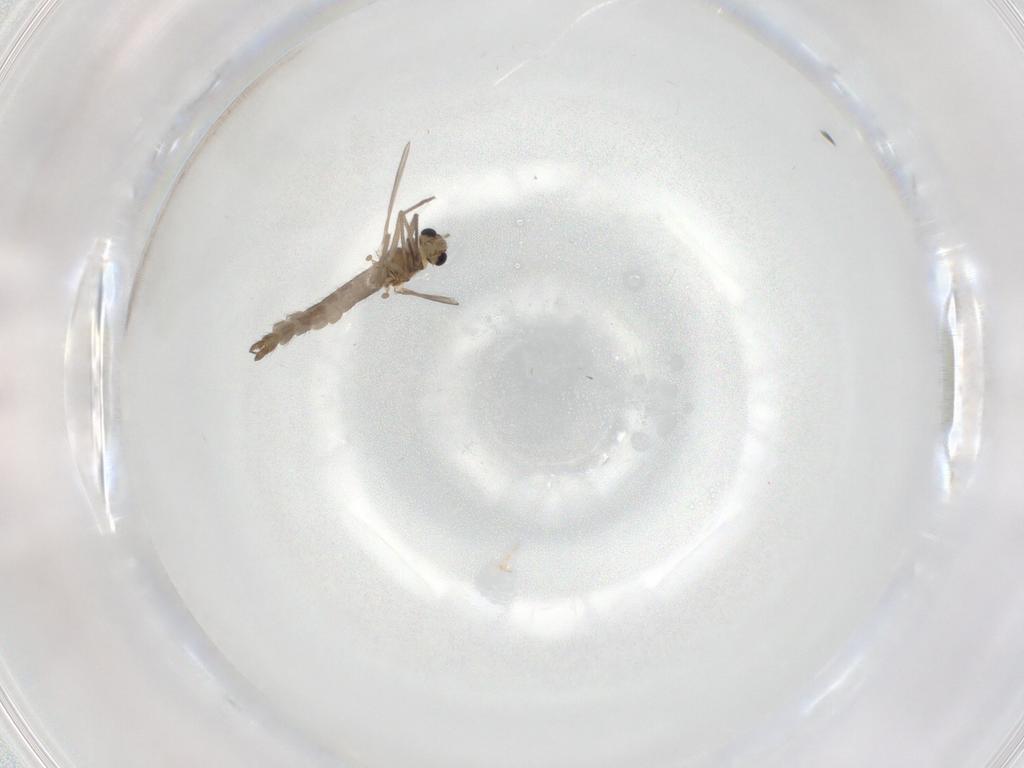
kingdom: Animalia
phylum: Arthropoda
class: Insecta
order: Diptera
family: Chironomidae
